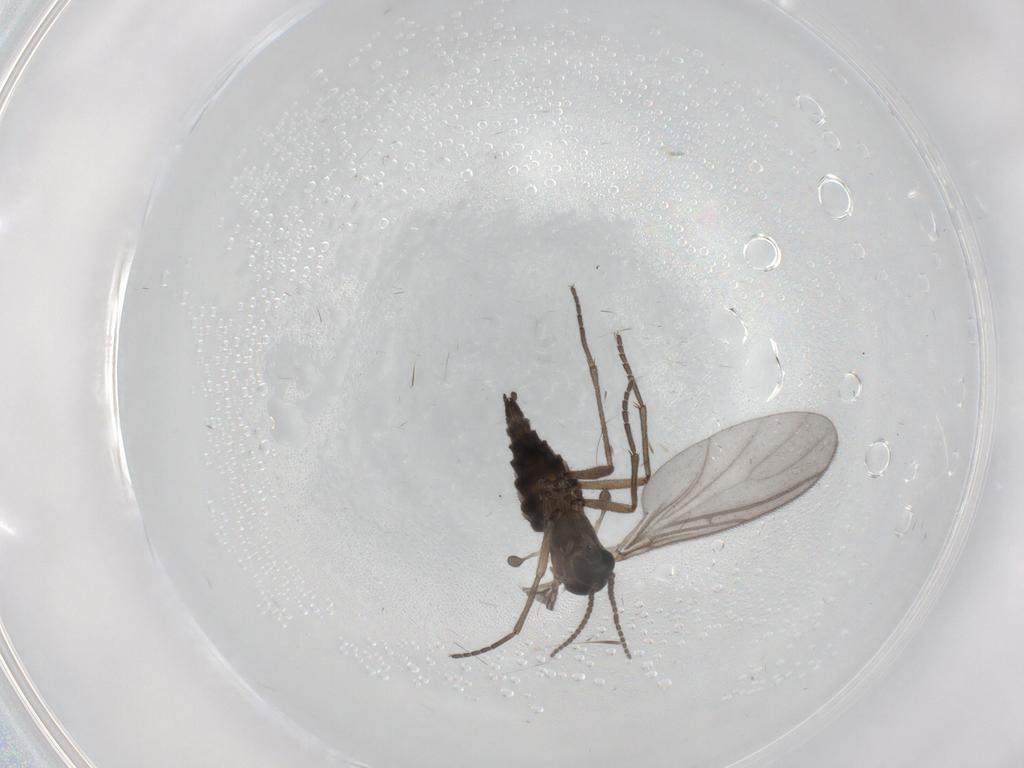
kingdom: Animalia
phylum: Arthropoda
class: Insecta
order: Diptera
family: Sciaridae
